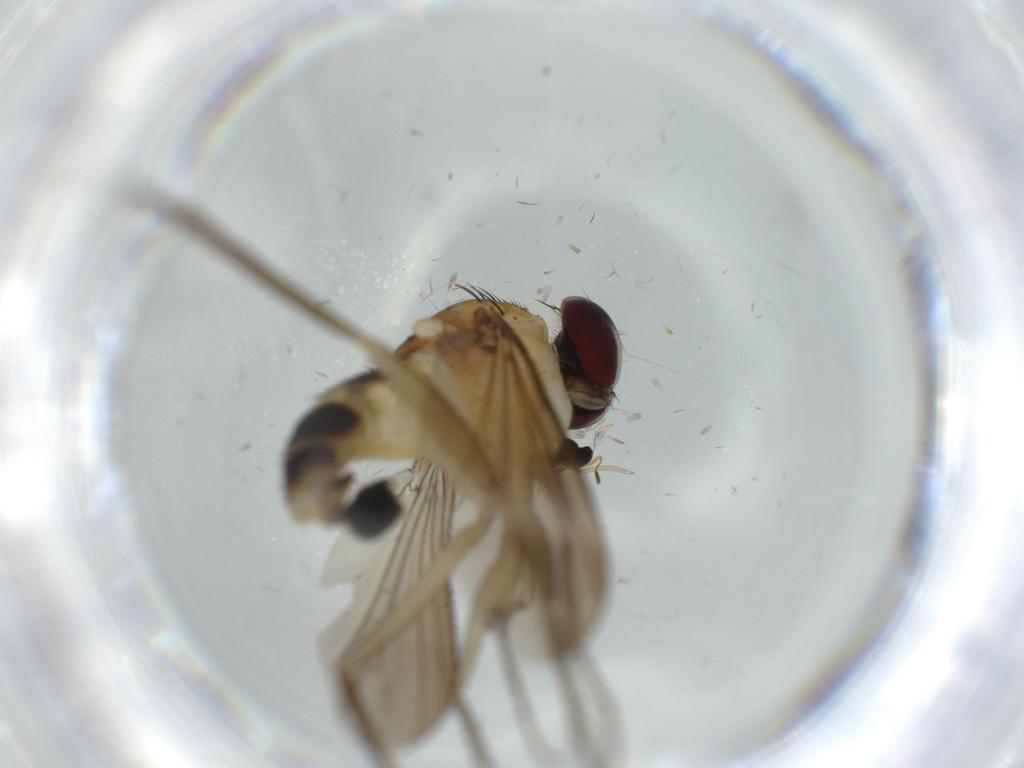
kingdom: Animalia
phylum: Arthropoda
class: Insecta
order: Diptera
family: Dolichopodidae
